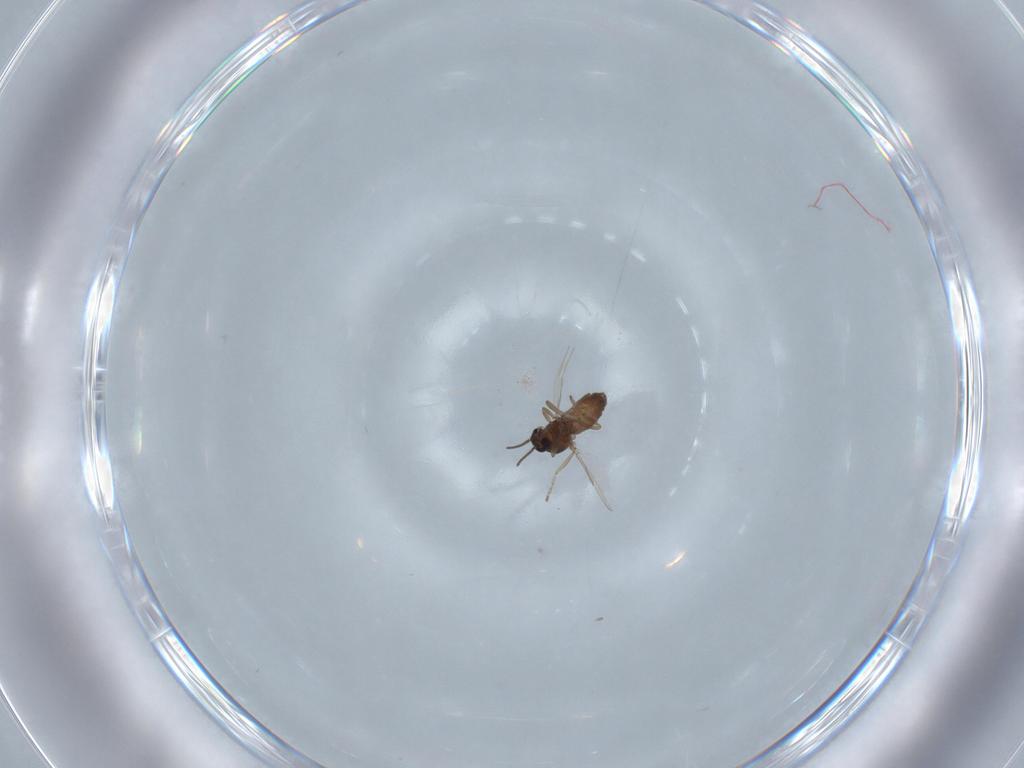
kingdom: Animalia
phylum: Arthropoda
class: Insecta
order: Diptera
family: Ceratopogonidae
